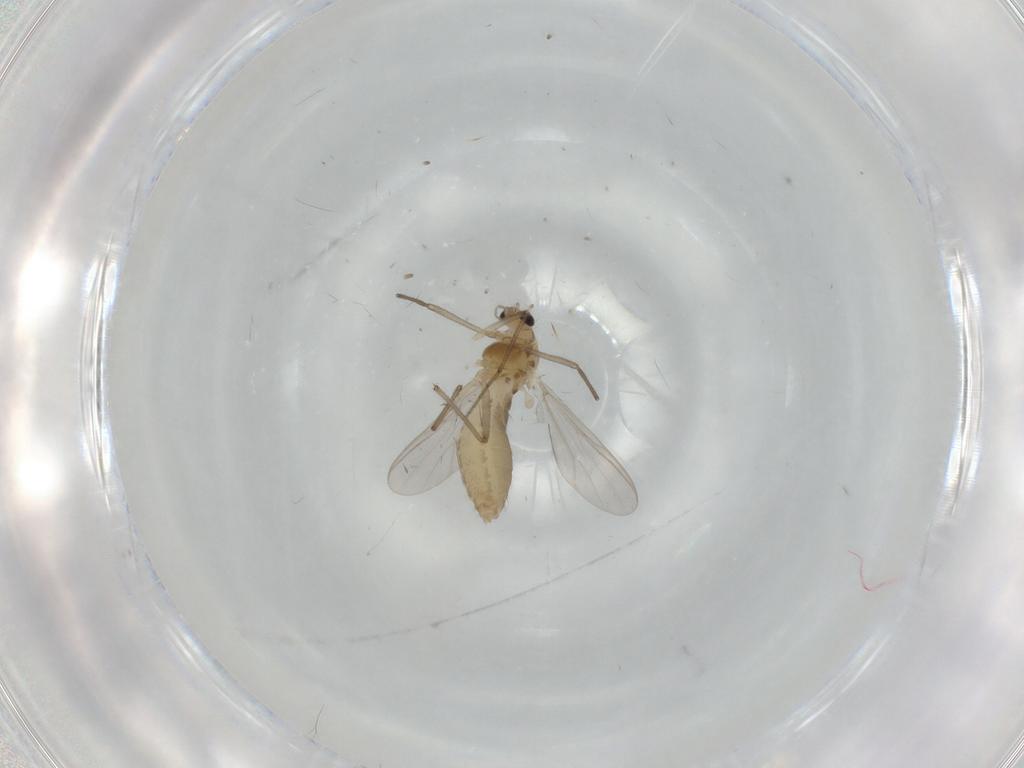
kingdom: Animalia
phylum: Arthropoda
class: Insecta
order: Diptera
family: Chironomidae
